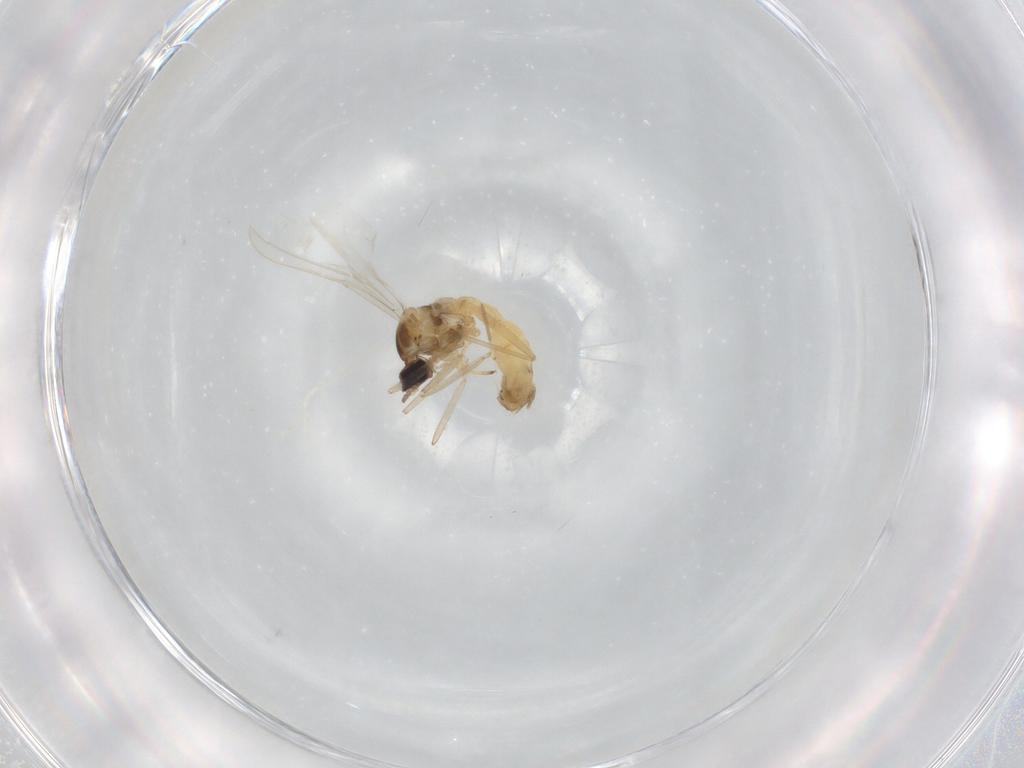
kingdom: Animalia
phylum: Arthropoda
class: Insecta
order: Diptera
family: Cecidomyiidae
